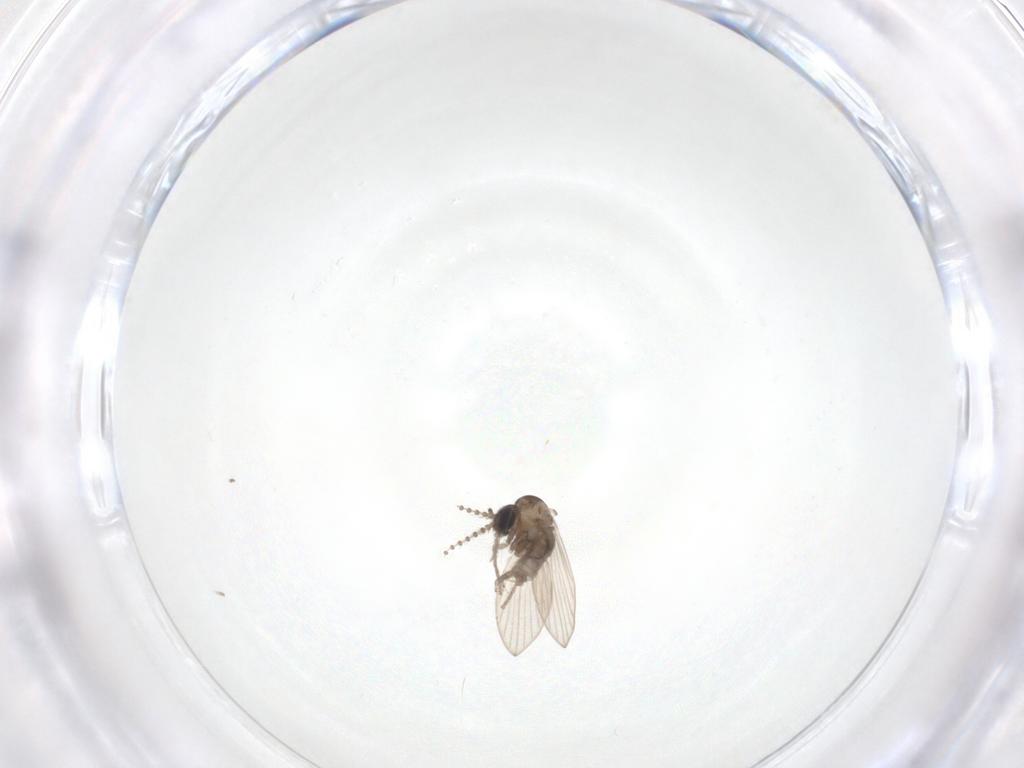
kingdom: Animalia
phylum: Arthropoda
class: Insecta
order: Diptera
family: Psychodidae
